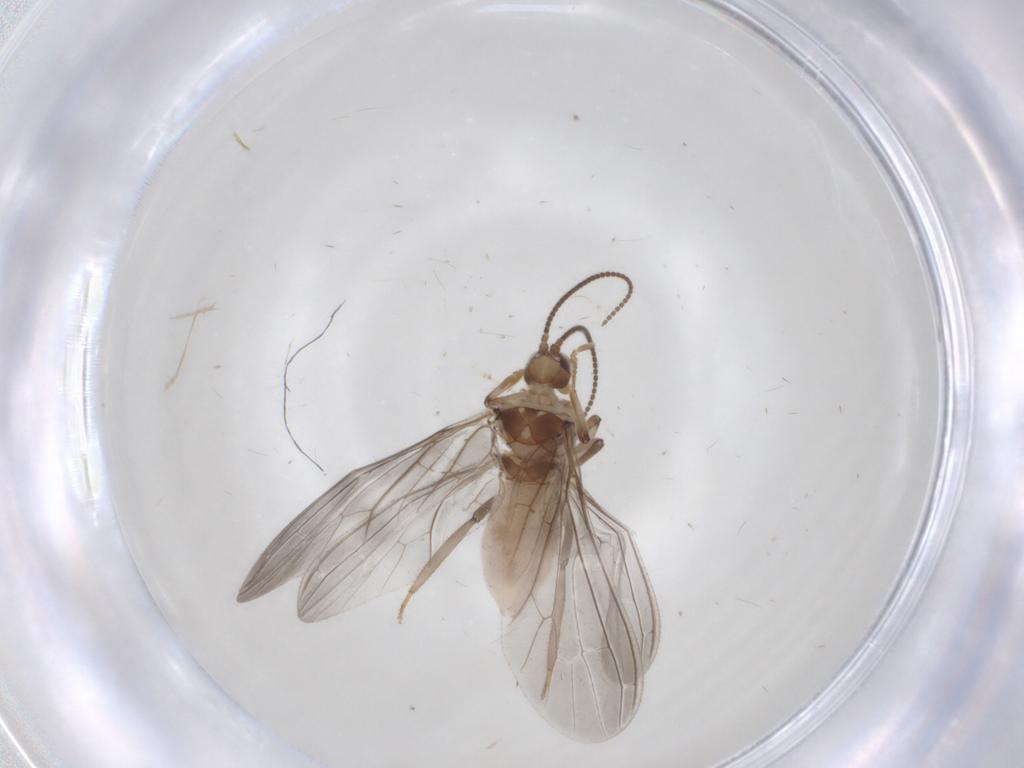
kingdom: Animalia
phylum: Arthropoda
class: Insecta
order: Neuroptera
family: Coniopterygidae
